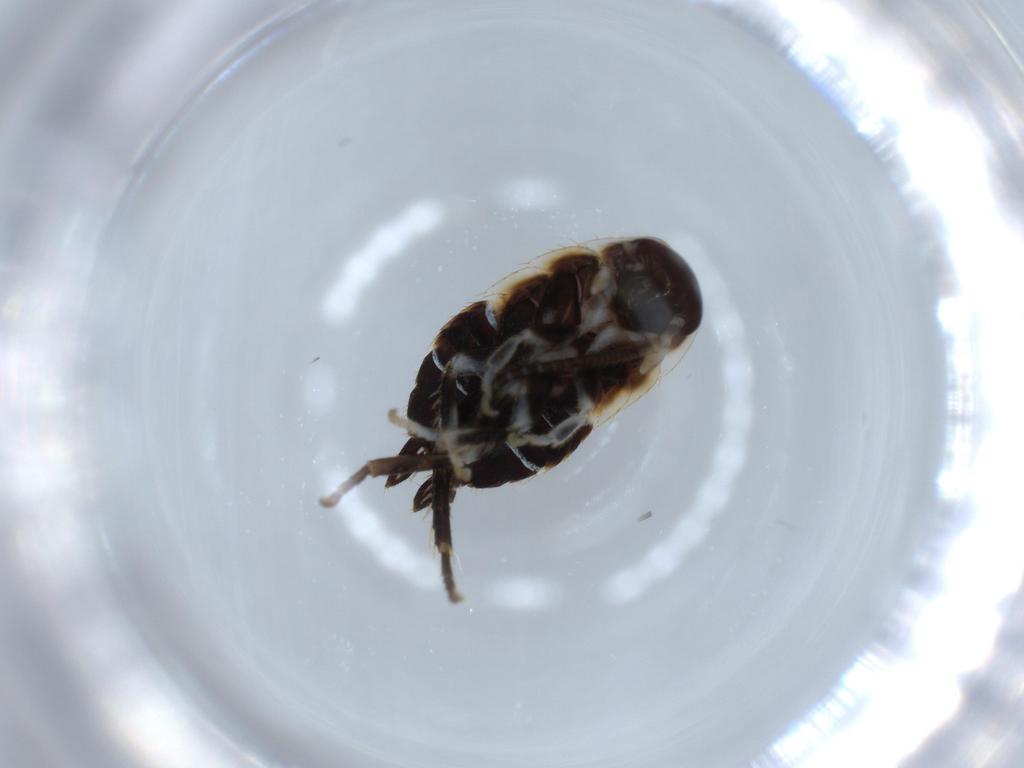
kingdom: Animalia
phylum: Arthropoda
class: Insecta
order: Blattodea
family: Ectobiidae
